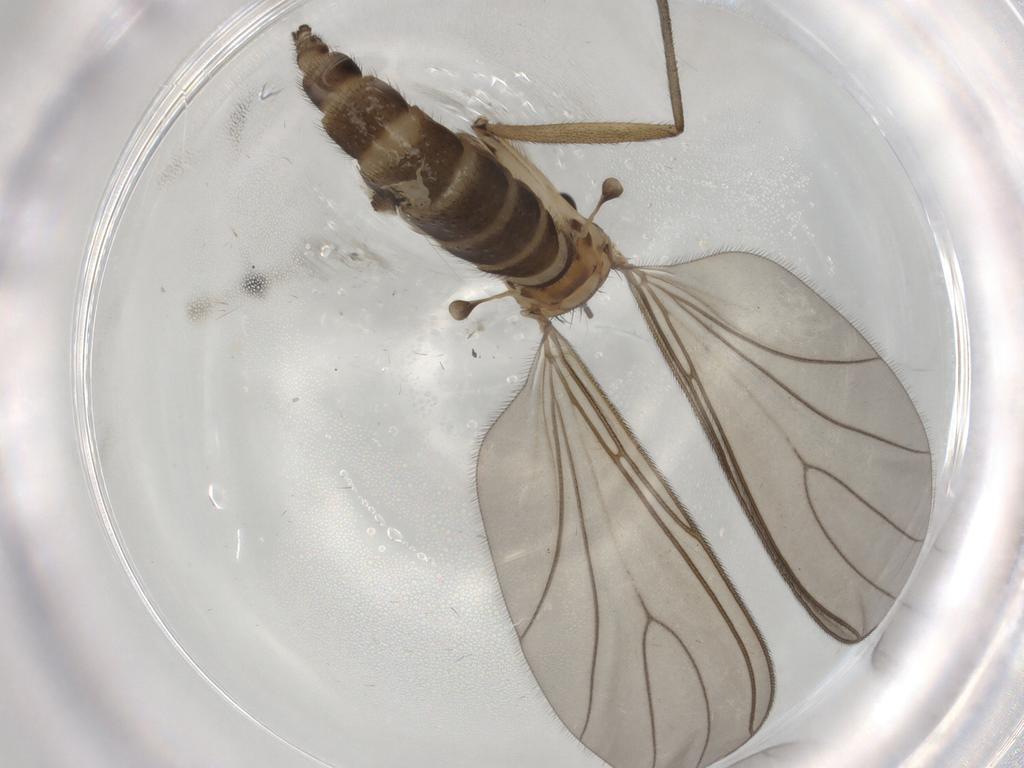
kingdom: Animalia
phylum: Arthropoda
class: Insecta
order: Diptera
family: Sciaridae
